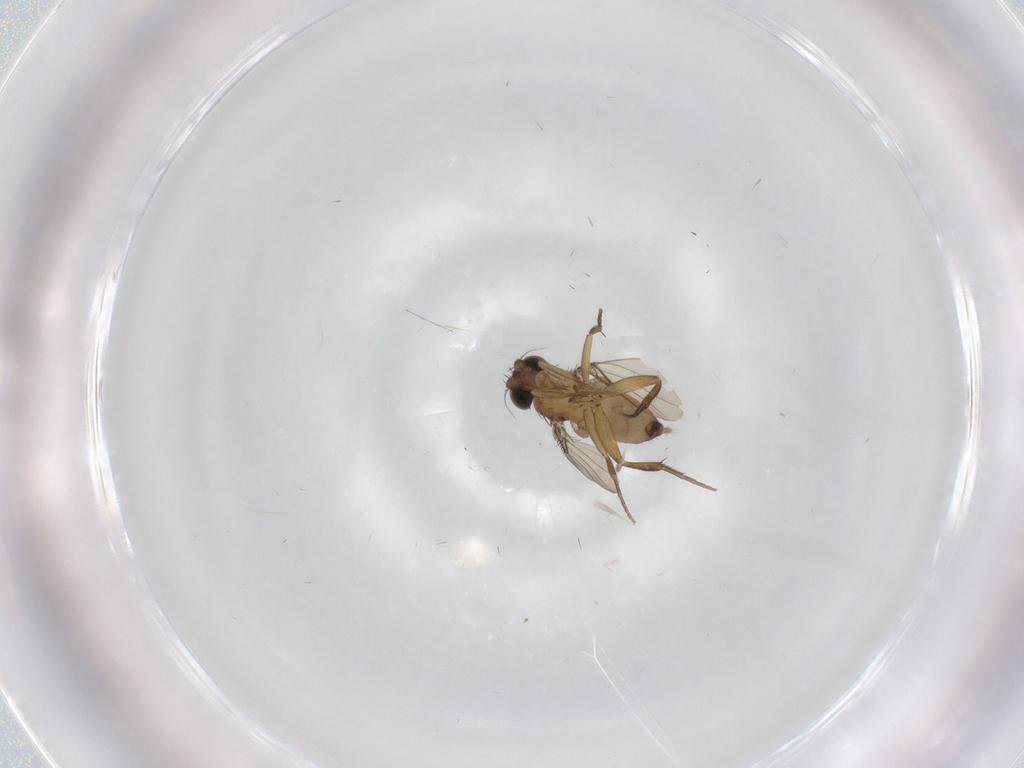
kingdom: Animalia
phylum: Arthropoda
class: Insecta
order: Diptera
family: Phoridae
